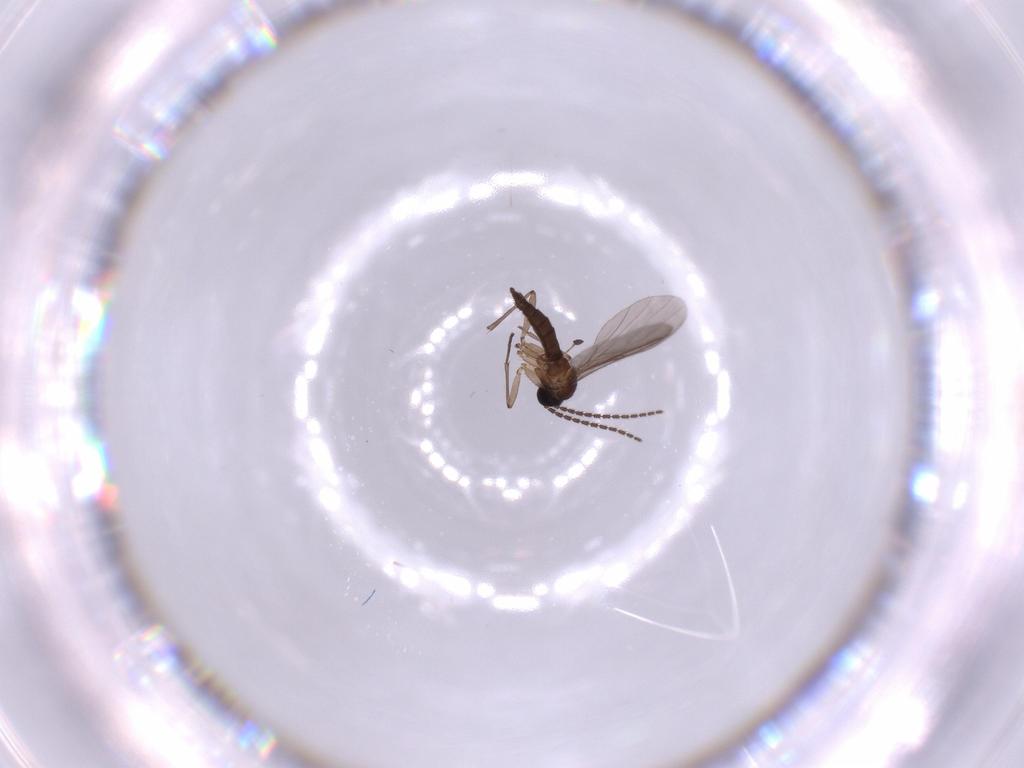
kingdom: Animalia
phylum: Arthropoda
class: Insecta
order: Diptera
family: Sciaridae
